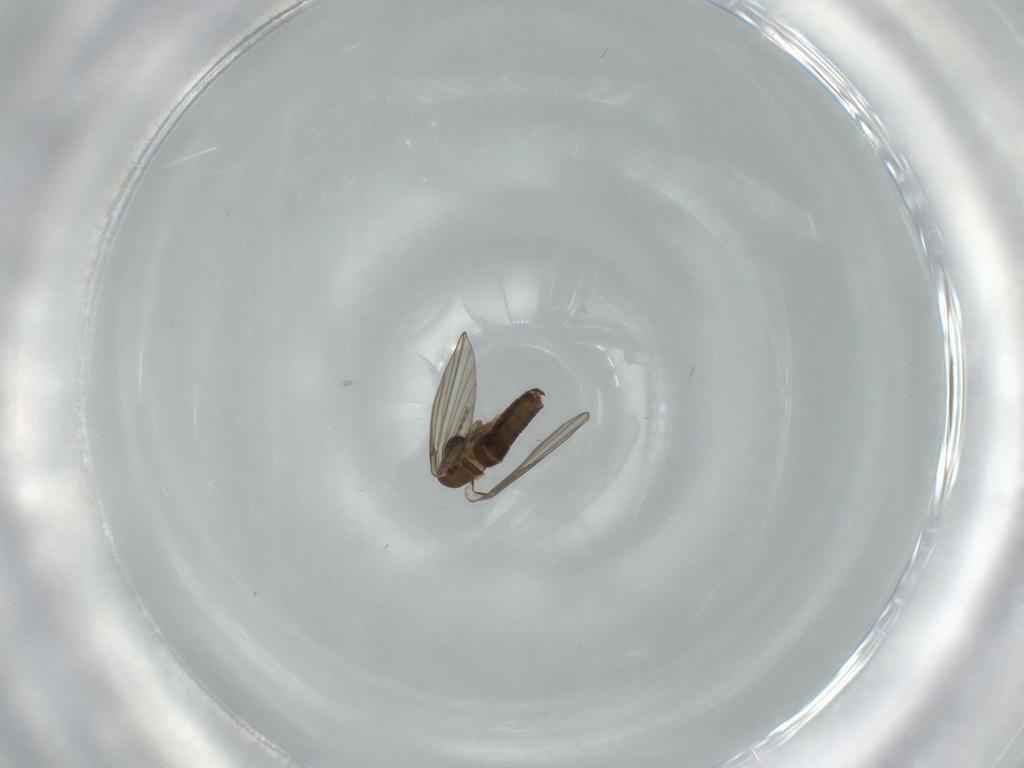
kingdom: Animalia
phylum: Arthropoda
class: Insecta
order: Diptera
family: Psychodidae
